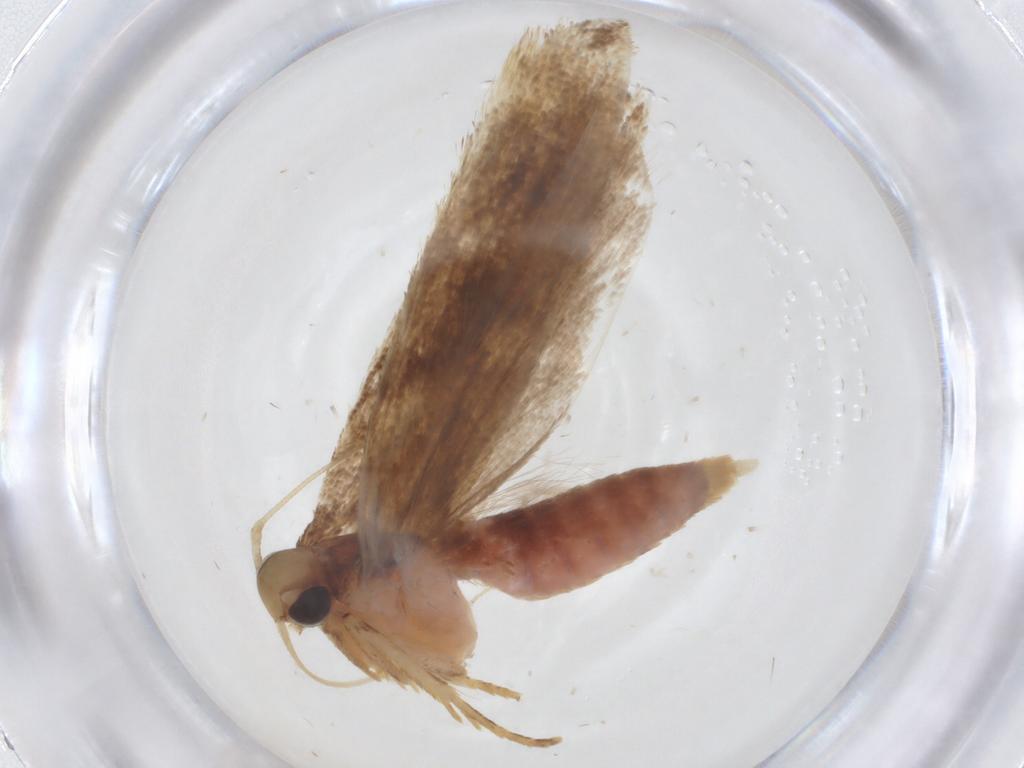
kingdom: Animalia
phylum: Arthropoda
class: Insecta
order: Lepidoptera
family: Gelechiidae
